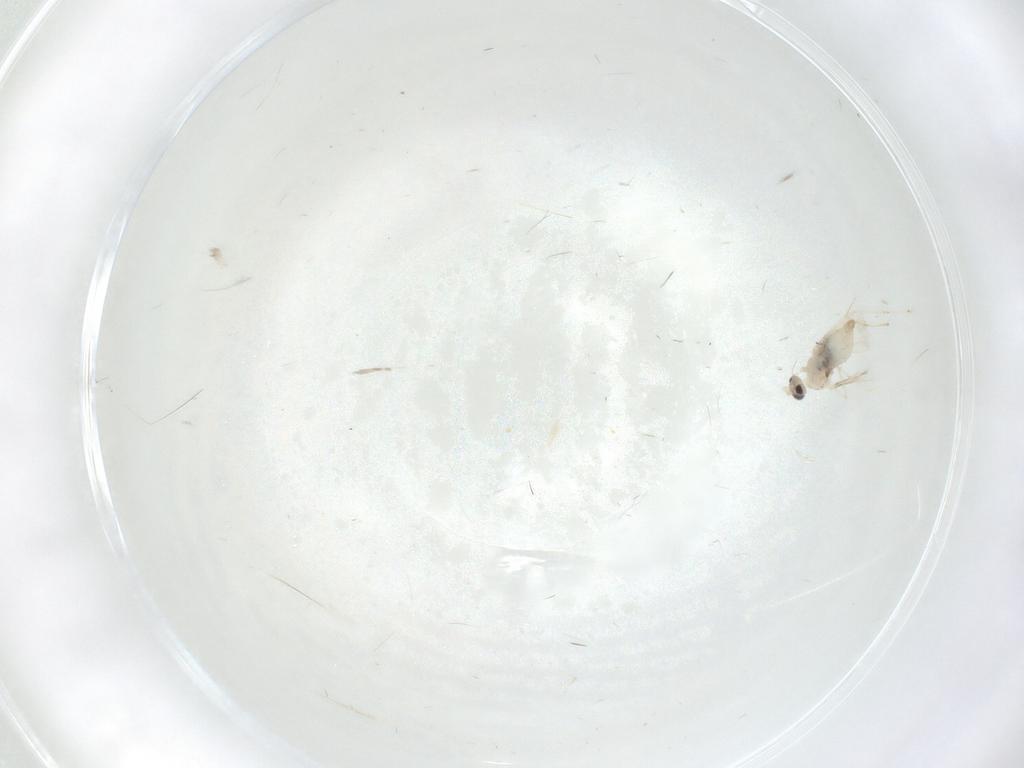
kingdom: Animalia
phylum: Arthropoda
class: Insecta
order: Diptera
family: Cecidomyiidae
